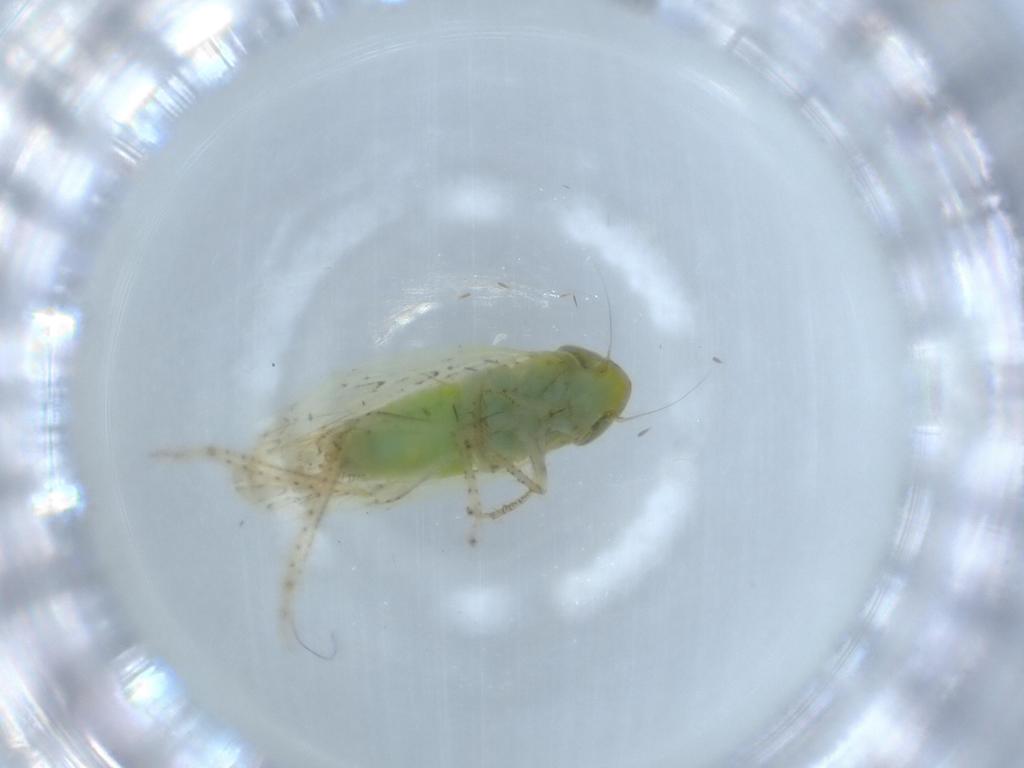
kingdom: Animalia
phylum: Arthropoda
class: Insecta
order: Hemiptera
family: Cicadellidae
